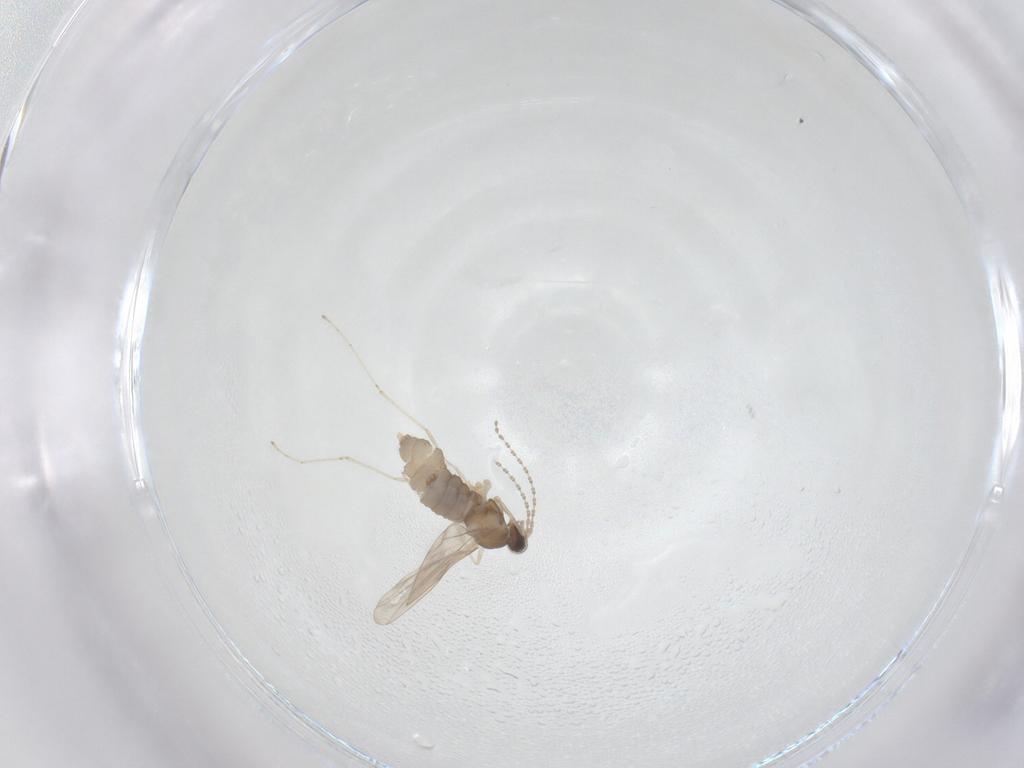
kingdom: Animalia
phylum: Arthropoda
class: Insecta
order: Diptera
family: Cecidomyiidae
